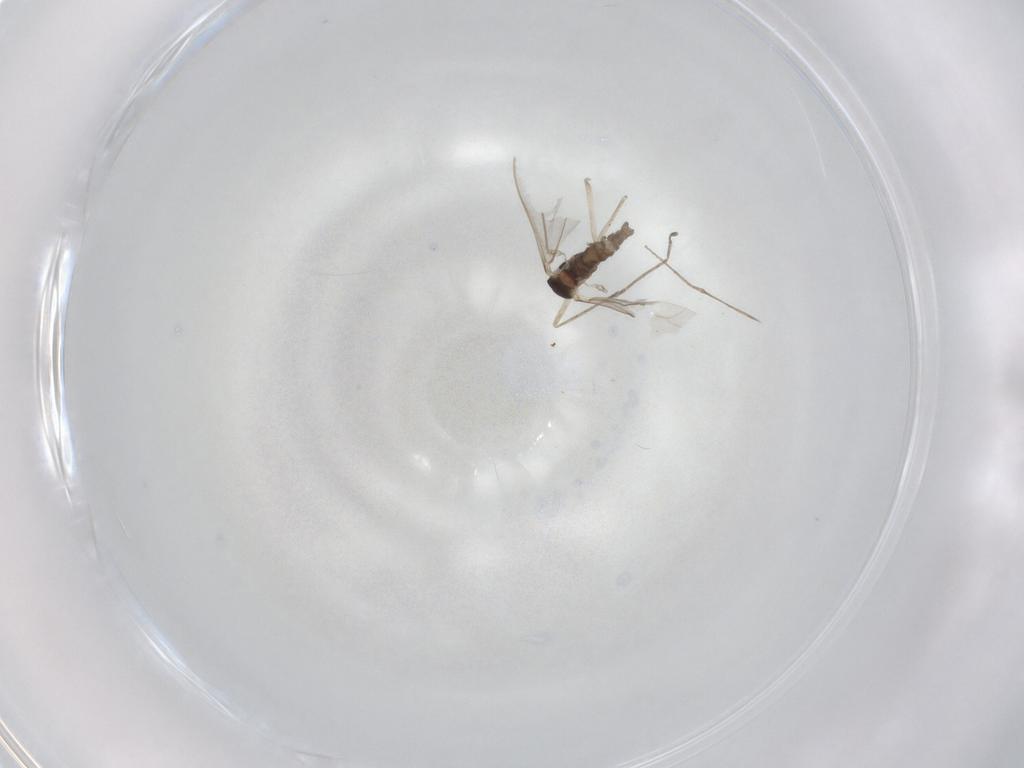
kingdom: Animalia
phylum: Arthropoda
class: Insecta
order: Diptera
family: Cecidomyiidae
